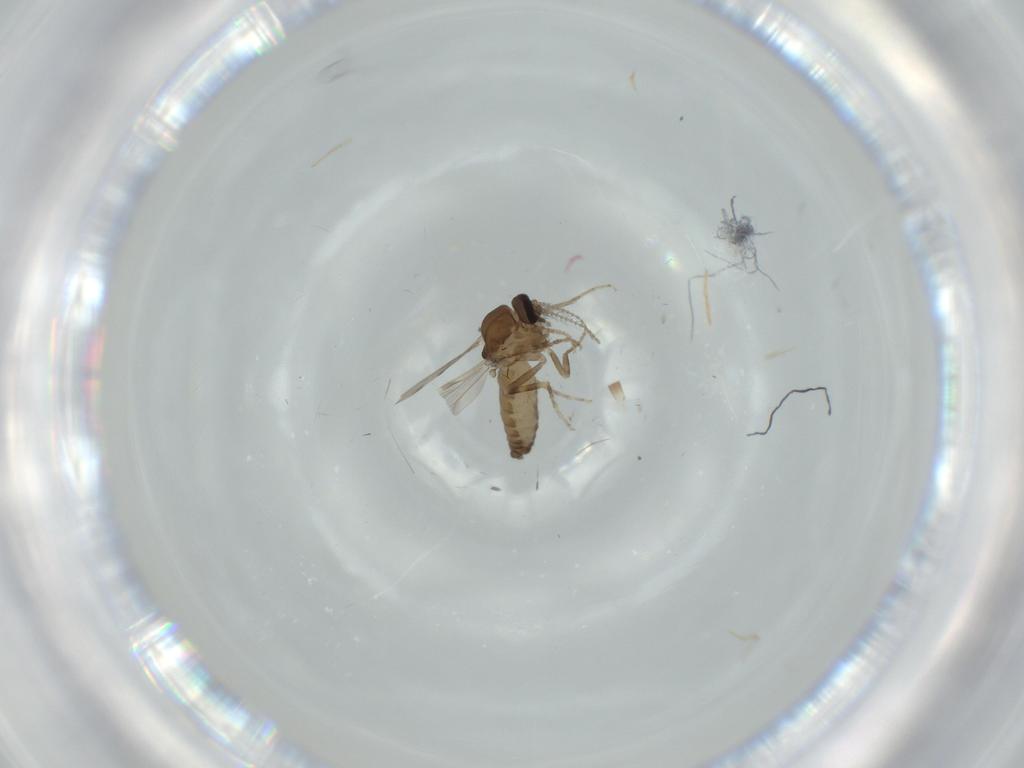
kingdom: Animalia
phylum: Arthropoda
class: Insecta
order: Diptera
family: Ceratopogonidae
